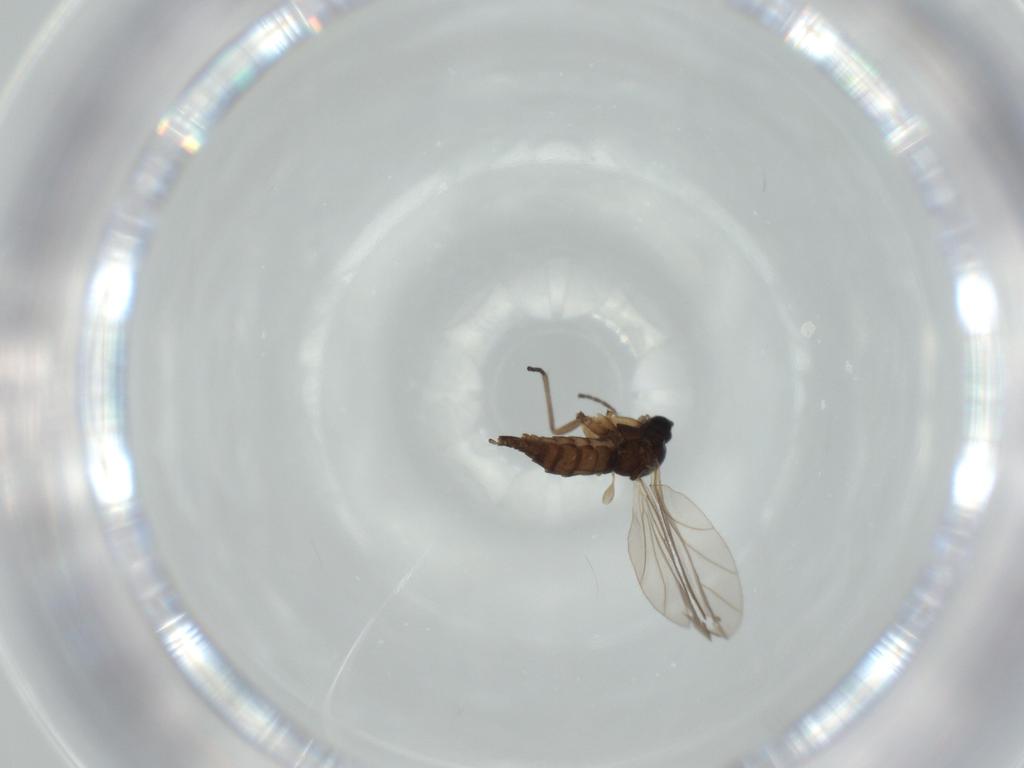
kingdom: Animalia
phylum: Arthropoda
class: Insecta
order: Diptera
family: Sciaridae
